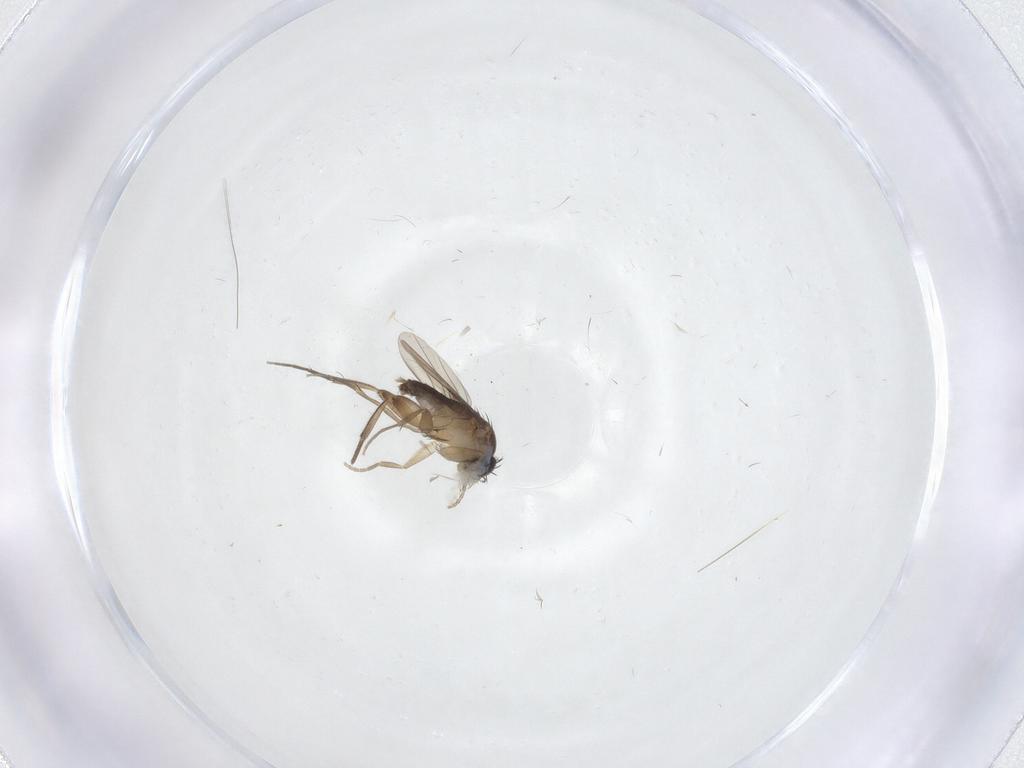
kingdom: Animalia
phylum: Arthropoda
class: Insecta
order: Diptera
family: Phoridae
